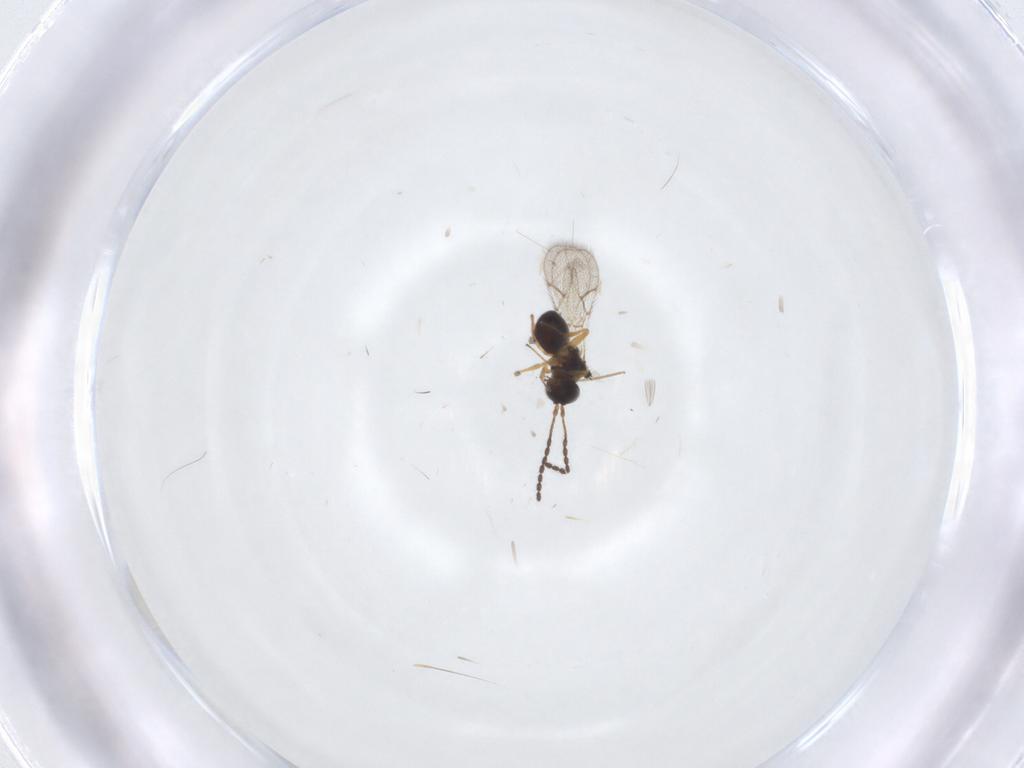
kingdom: Animalia
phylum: Arthropoda
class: Insecta
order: Hymenoptera
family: Figitidae
